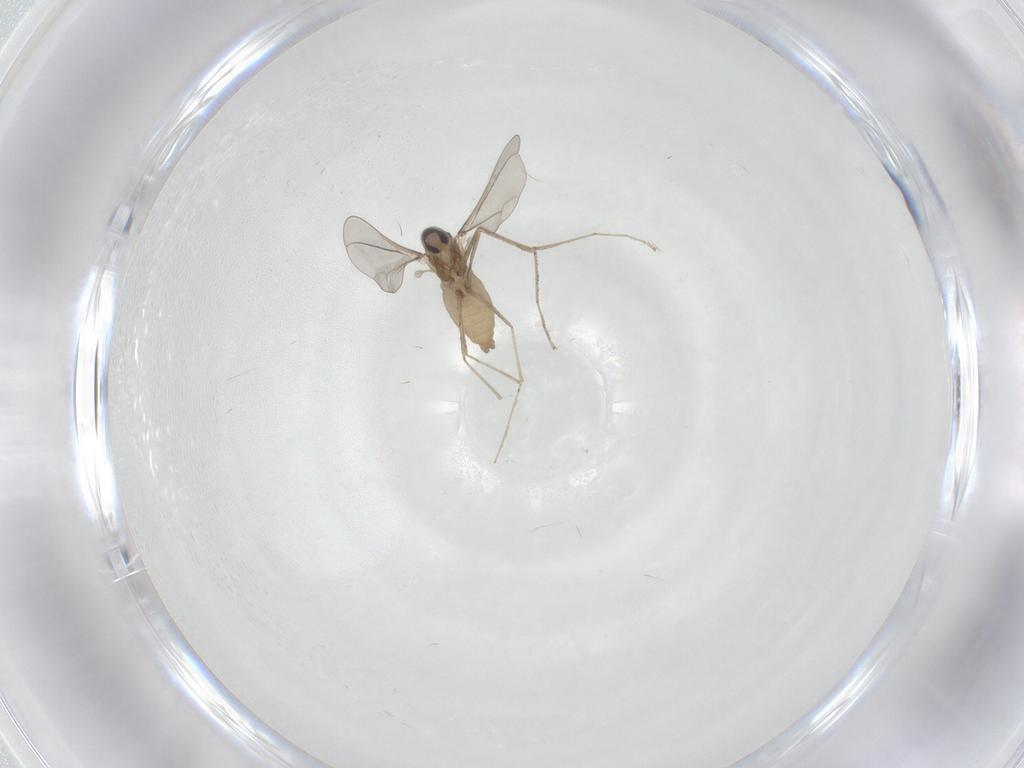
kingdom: Animalia
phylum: Arthropoda
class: Insecta
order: Diptera
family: Cecidomyiidae
